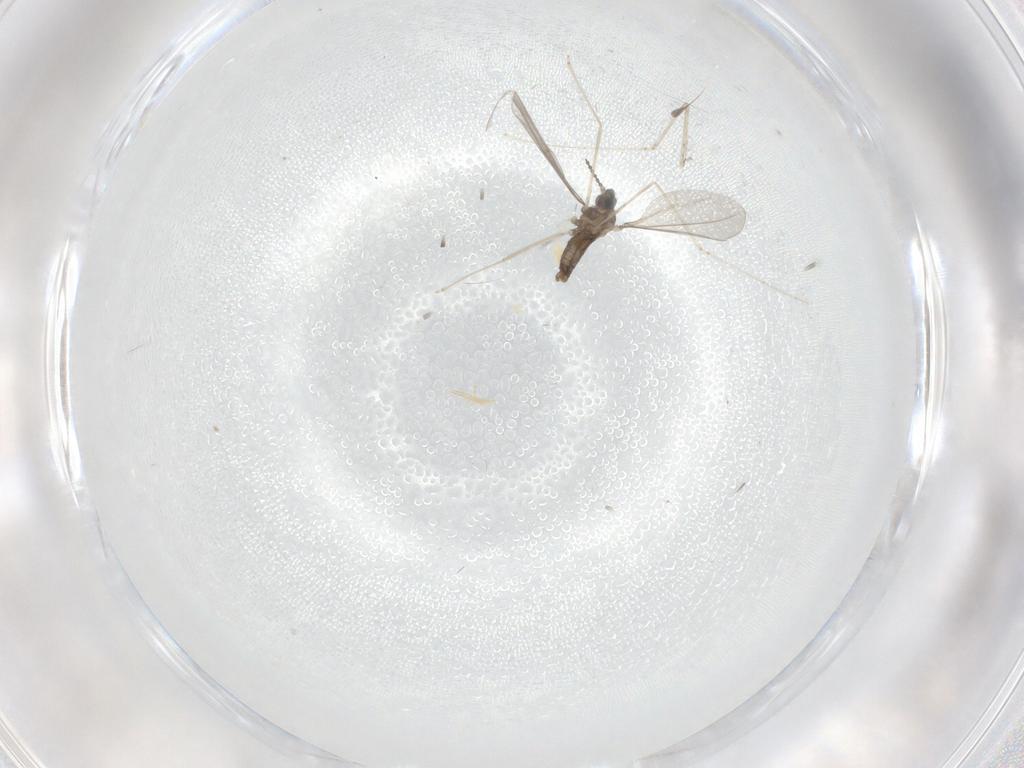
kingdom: Animalia
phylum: Arthropoda
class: Insecta
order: Diptera
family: Cecidomyiidae
